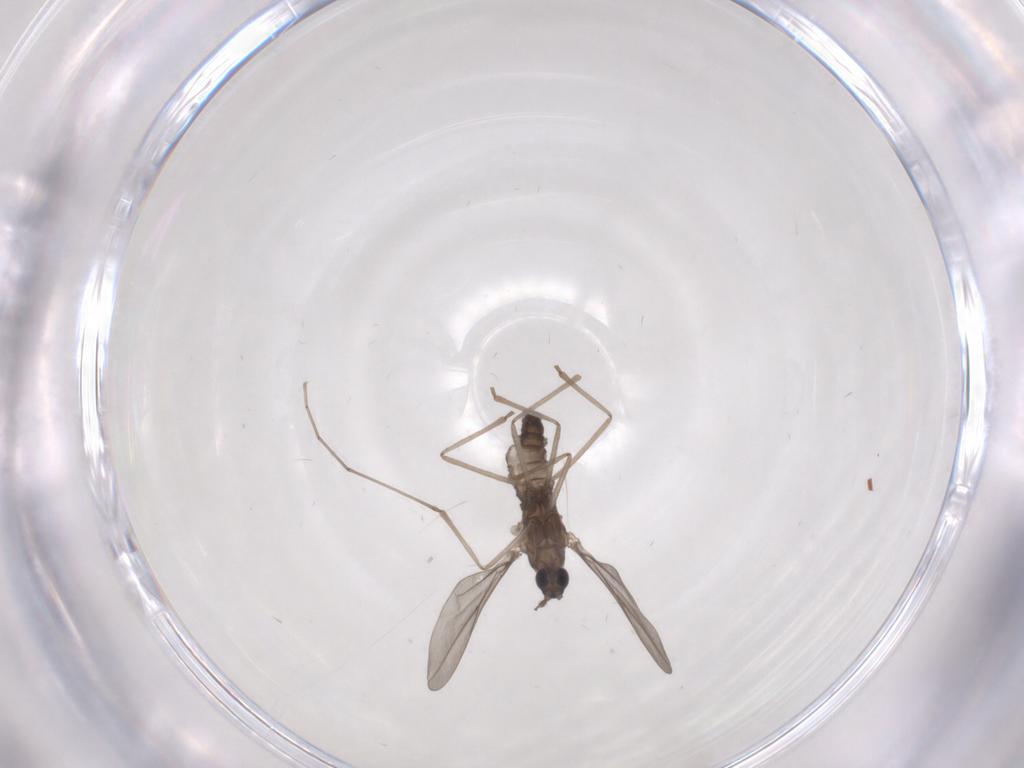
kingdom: Animalia
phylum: Arthropoda
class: Insecta
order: Diptera
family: Cecidomyiidae
